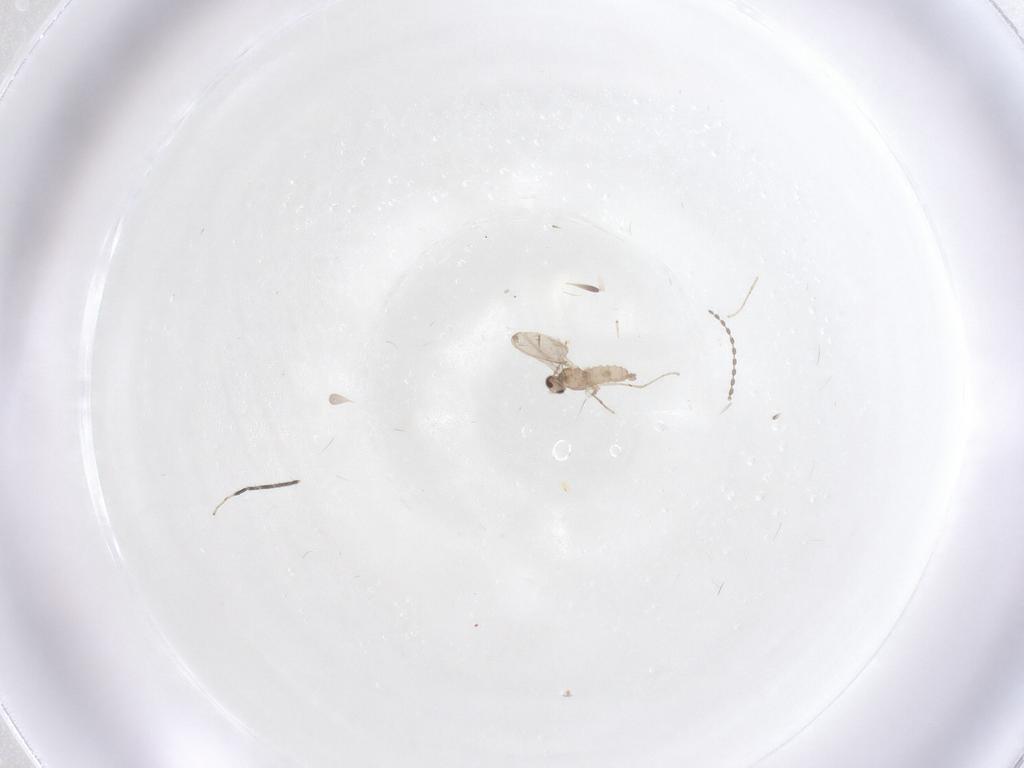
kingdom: Animalia
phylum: Arthropoda
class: Insecta
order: Diptera
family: Cecidomyiidae
